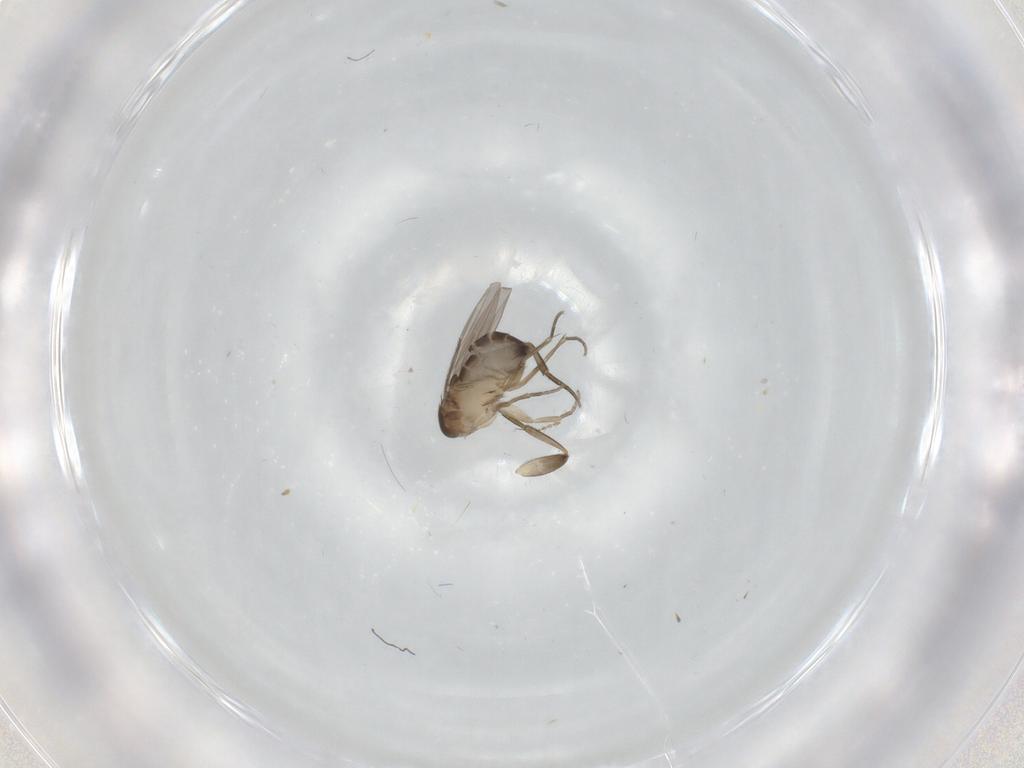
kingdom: Animalia
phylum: Arthropoda
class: Insecta
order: Diptera
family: Phoridae
